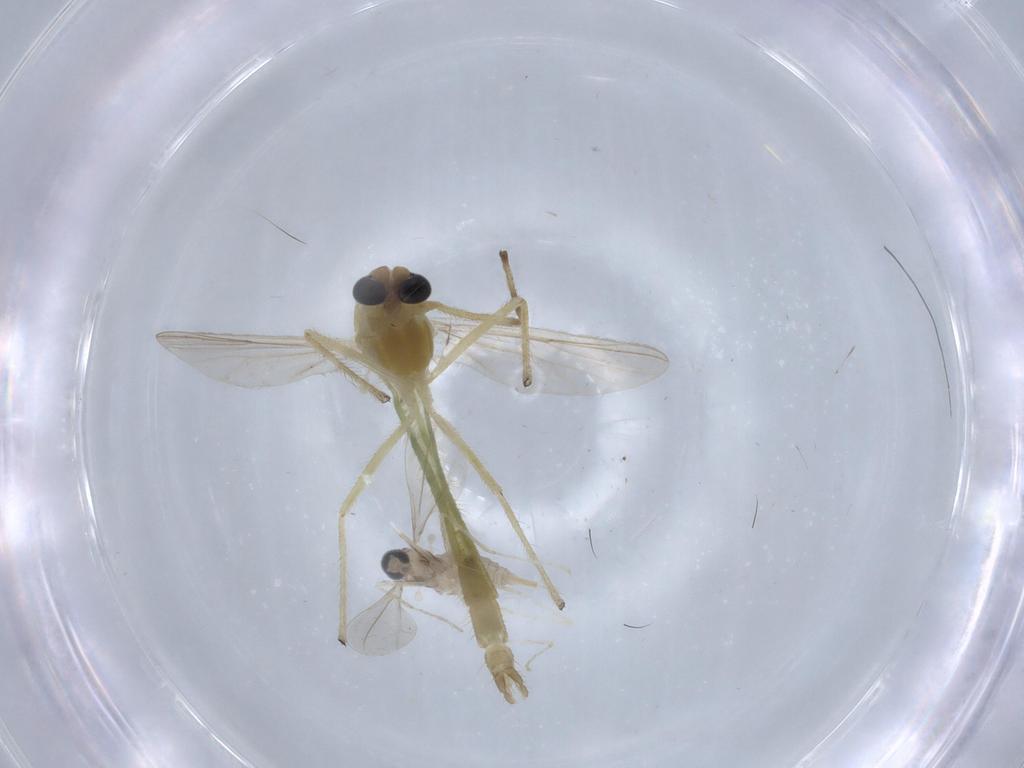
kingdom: Animalia
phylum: Arthropoda
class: Insecta
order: Diptera
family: Cecidomyiidae
